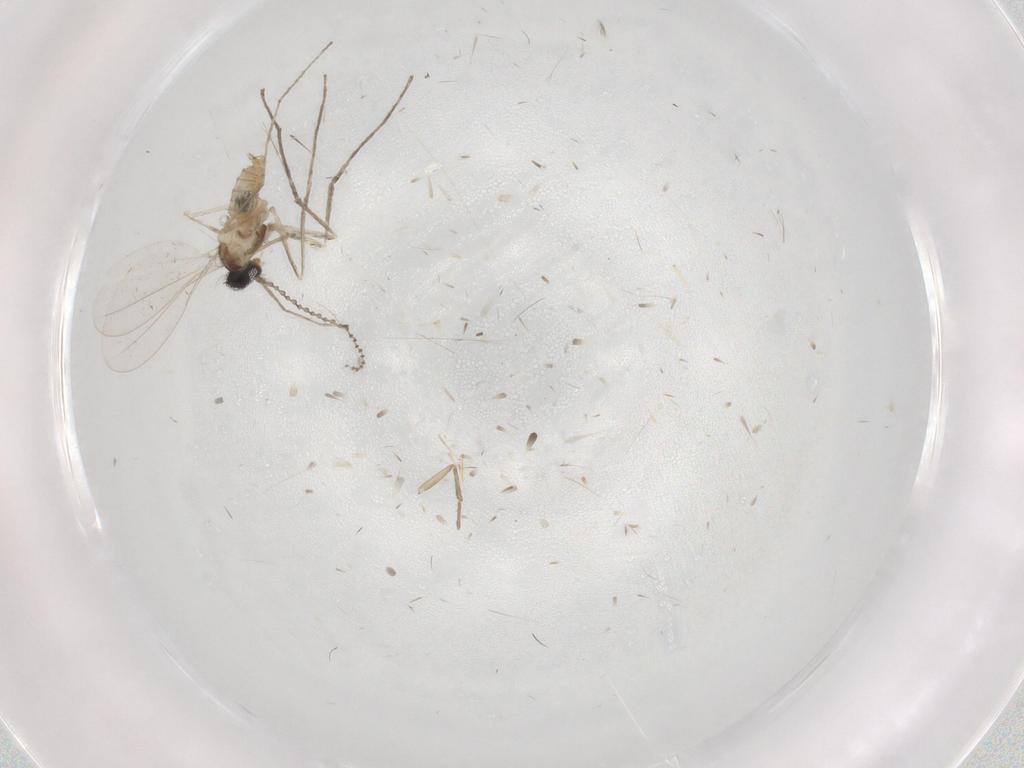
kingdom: Animalia
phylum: Arthropoda
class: Insecta
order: Diptera
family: Cecidomyiidae
